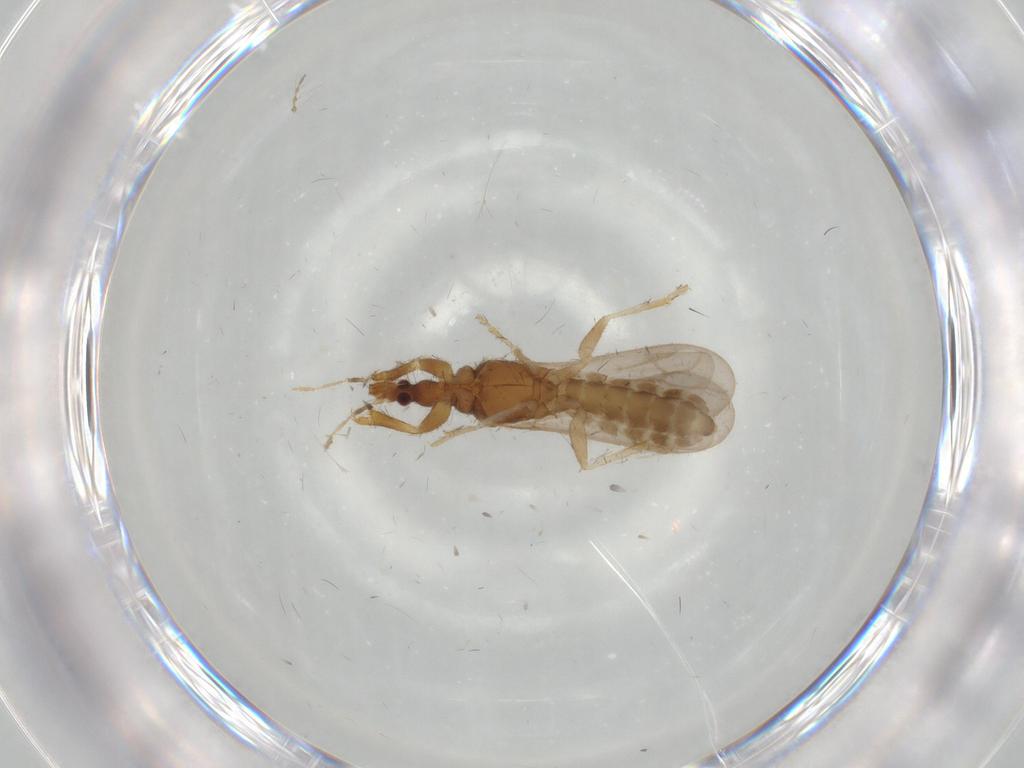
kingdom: Animalia
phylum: Arthropoda
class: Insecta
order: Hemiptera
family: Enicocephalidae
